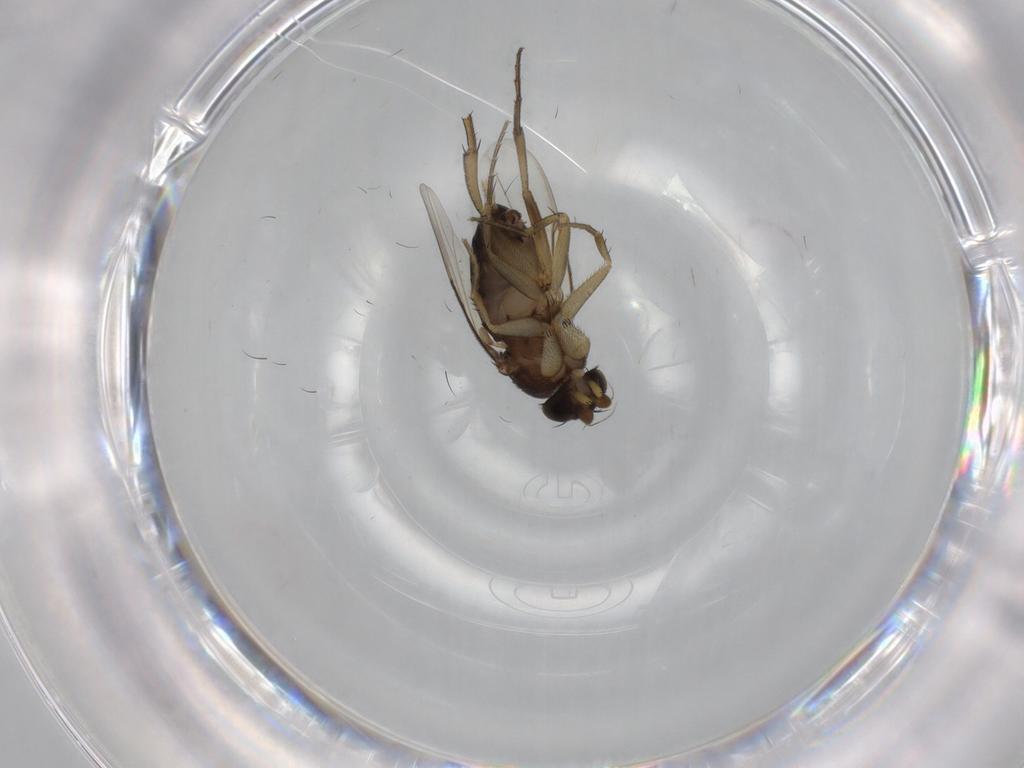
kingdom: Animalia
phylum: Arthropoda
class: Insecta
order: Diptera
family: Phoridae
